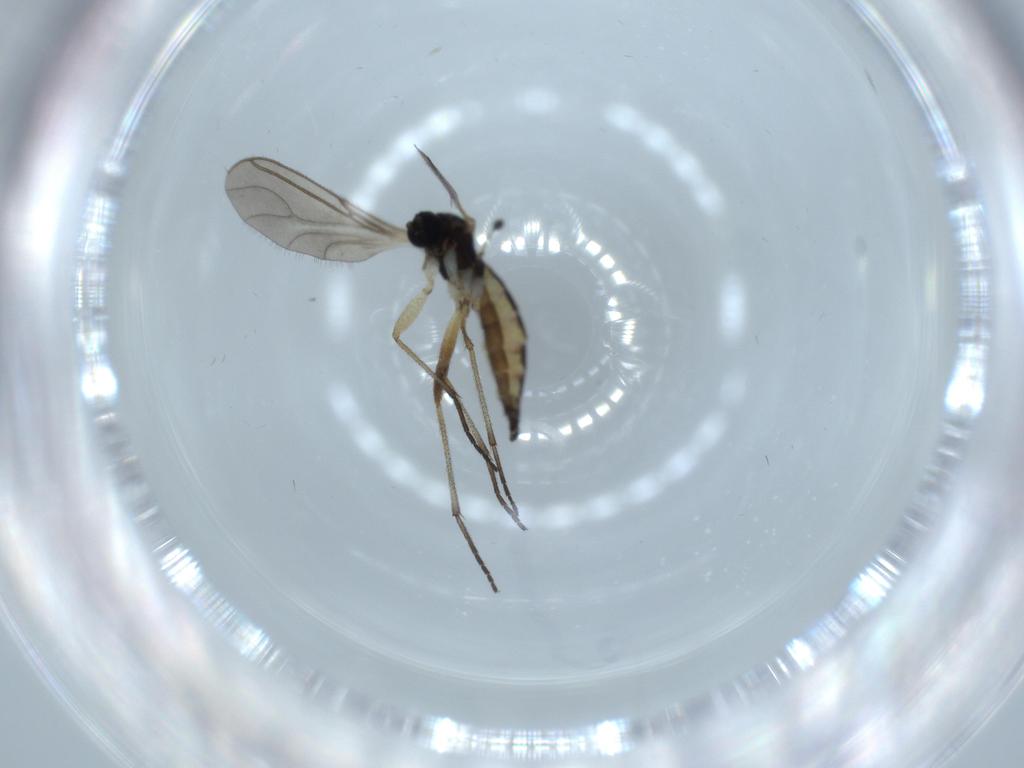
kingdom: Animalia
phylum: Arthropoda
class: Insecta
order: Diptera
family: Sciaridae
